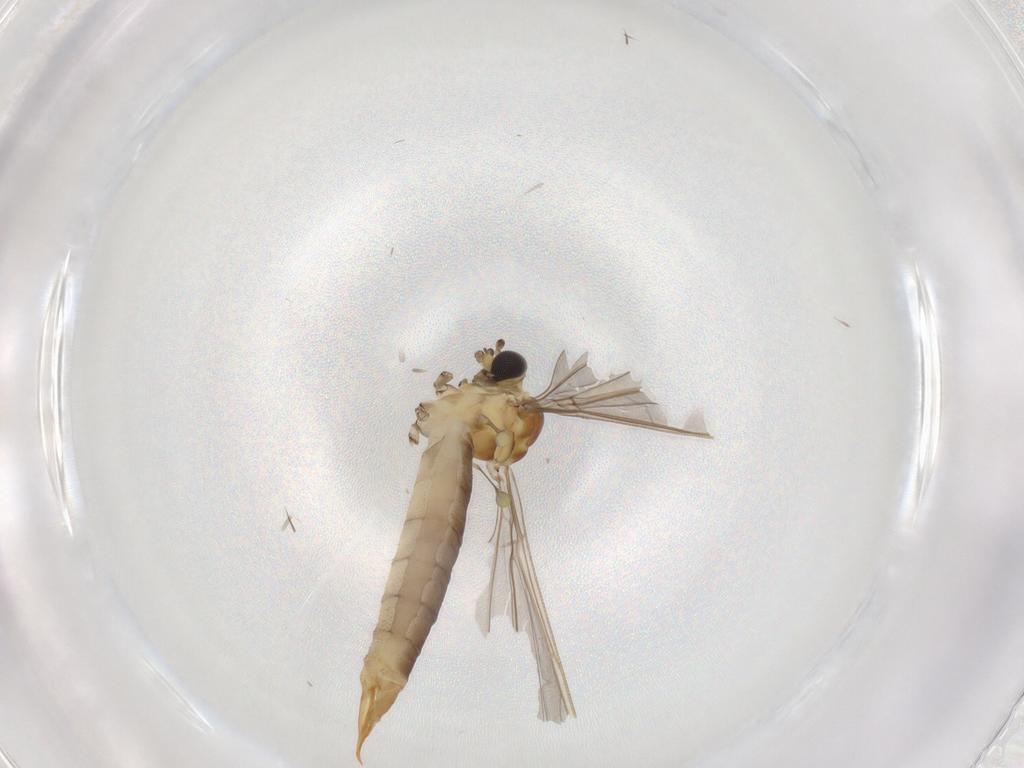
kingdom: Animalia
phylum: Arthropoda
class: Insecta
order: Diptera
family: Limoniidae
